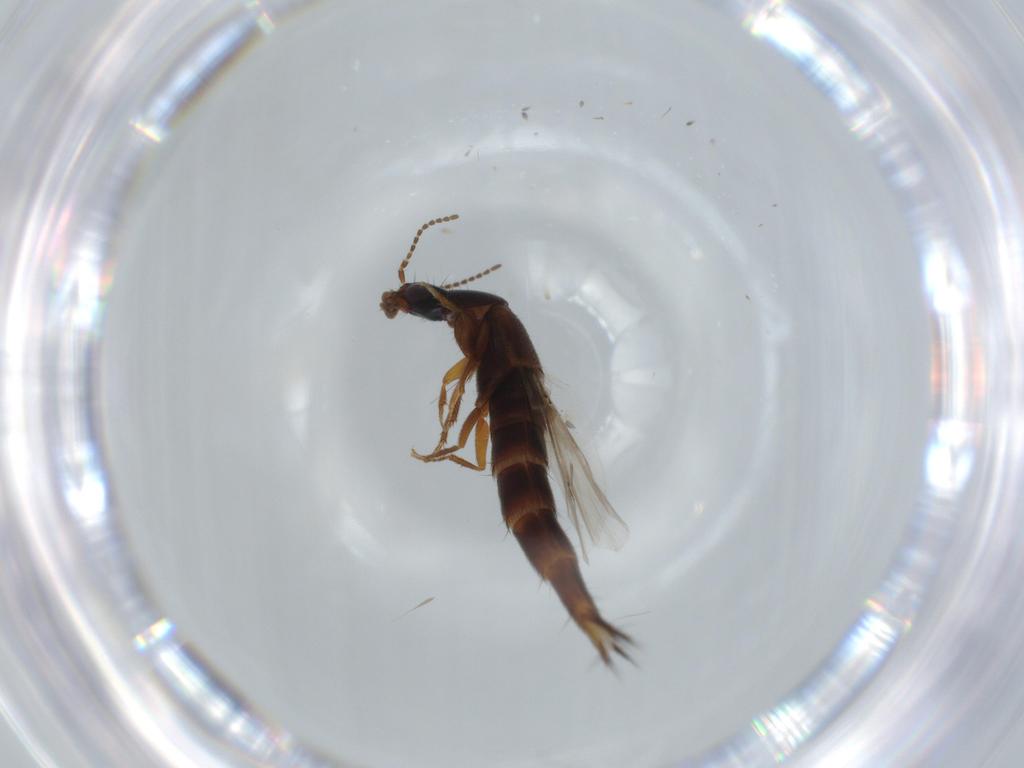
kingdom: Animalia
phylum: Arthropoda
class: Insecta
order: Coleoptera
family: Chrysomelidae
